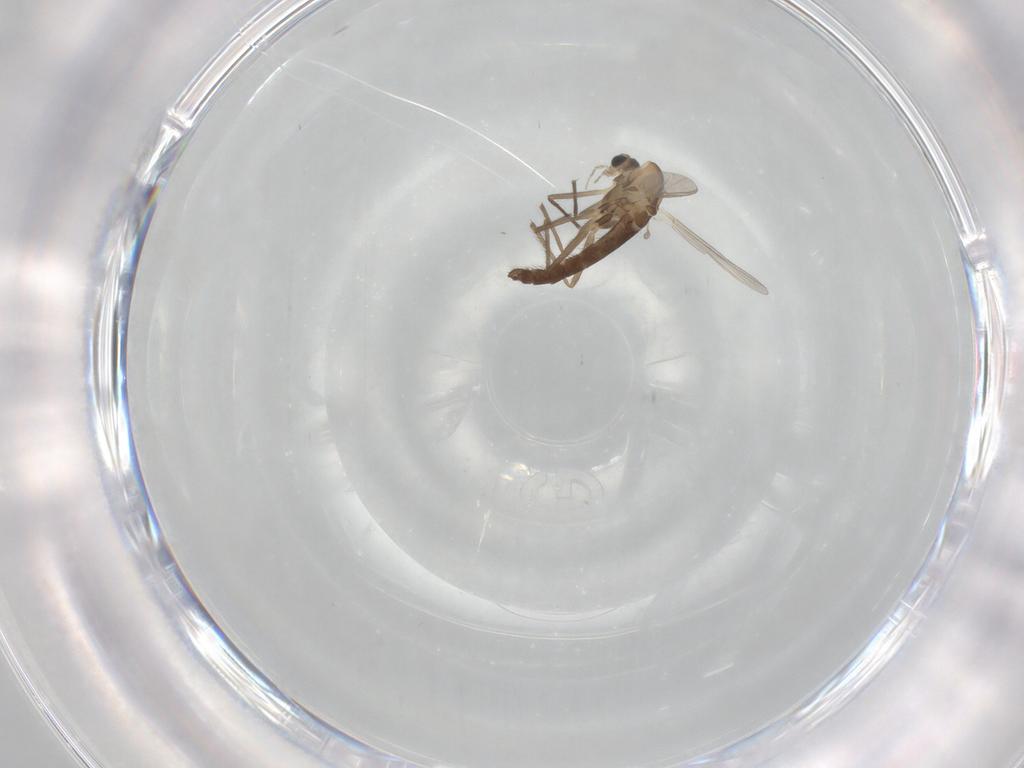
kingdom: Animalia
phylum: Arthropoda
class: Insecta
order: Diptera
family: Chironomidae
